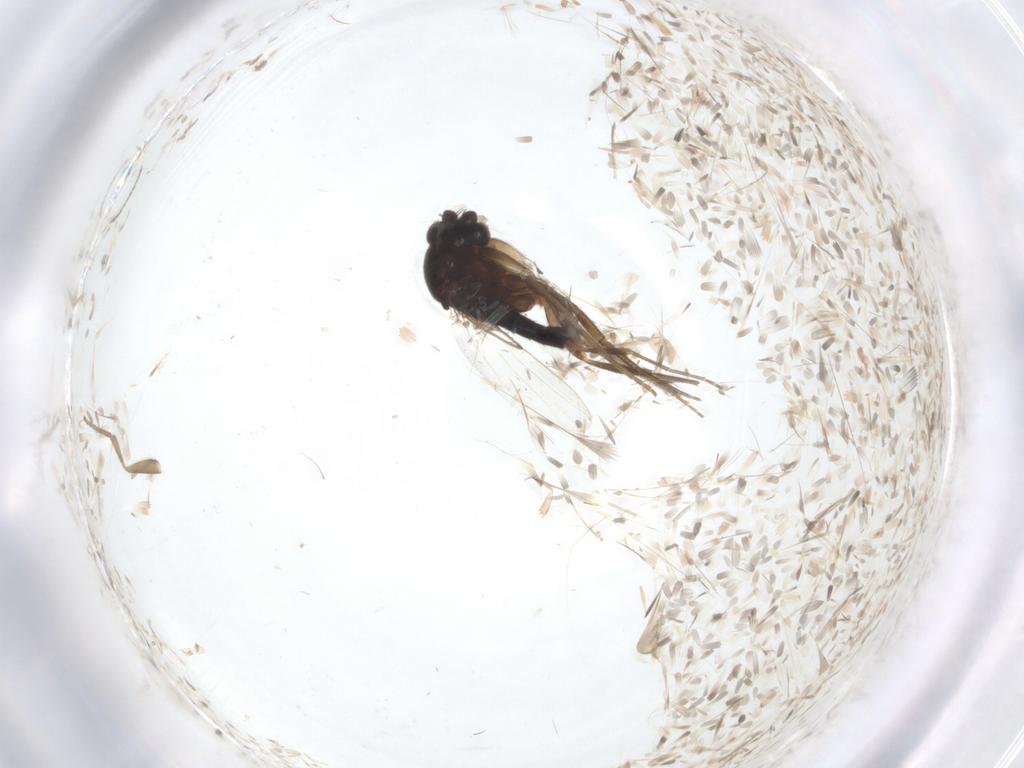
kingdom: Animalia
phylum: Arthropoda
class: Insecta
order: Diptera
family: Phoridae
